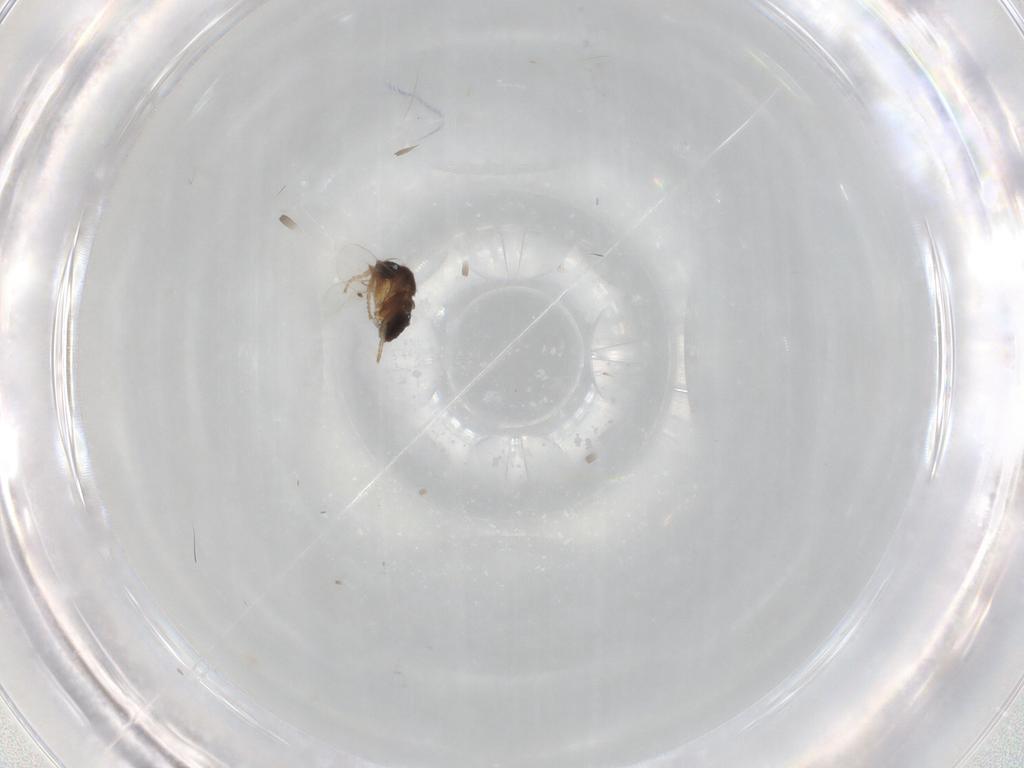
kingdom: Animalia
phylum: Arthropoda
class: Insecta
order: Diptera
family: Phoridae
